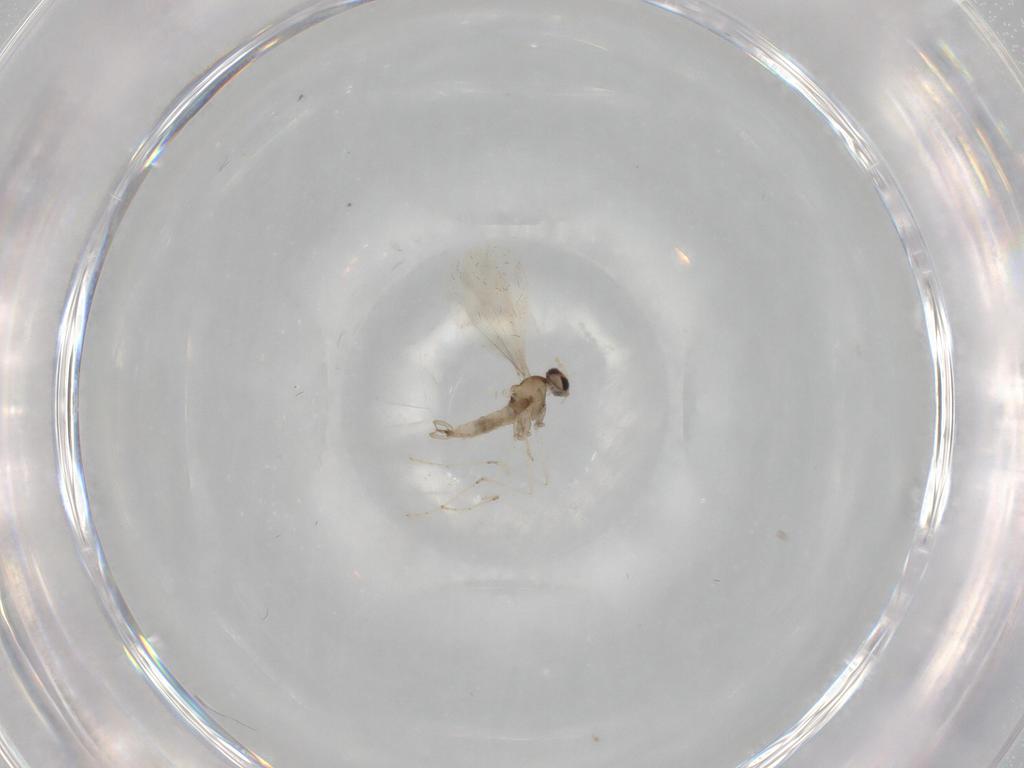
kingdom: Animalia
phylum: Arthropoda
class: Insecta
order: Diptera
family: Cecidomyiidae
